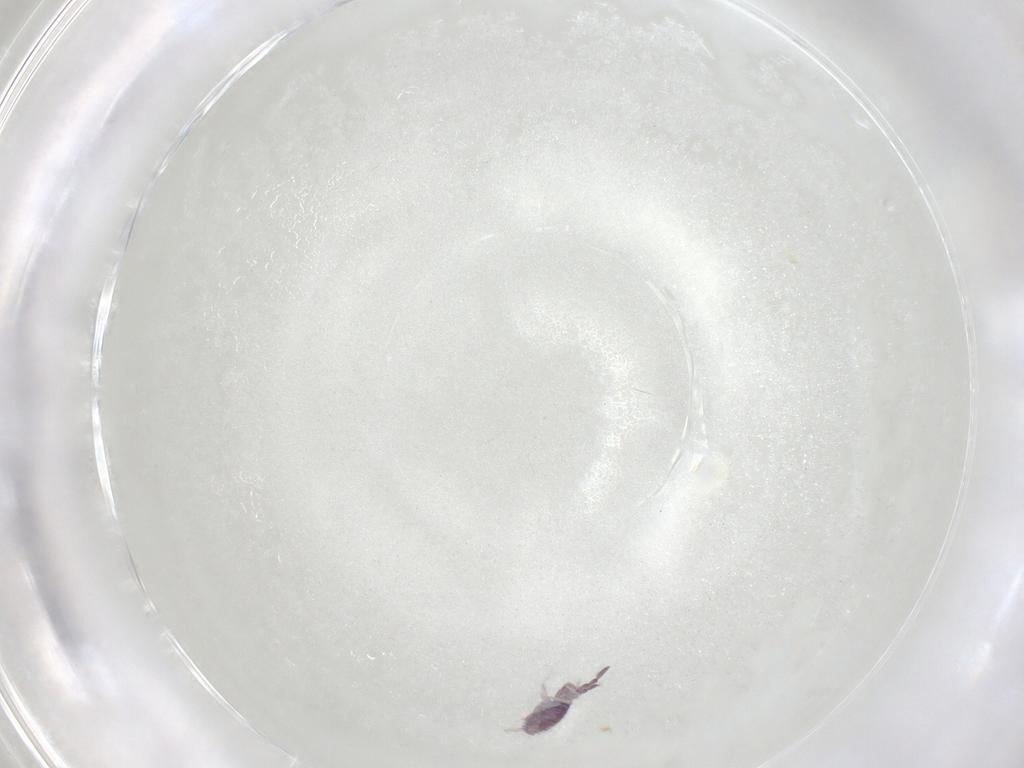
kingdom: Animalia
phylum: Arthropoda
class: Collembola
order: Entomobryomorpha
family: Entomobryidae
